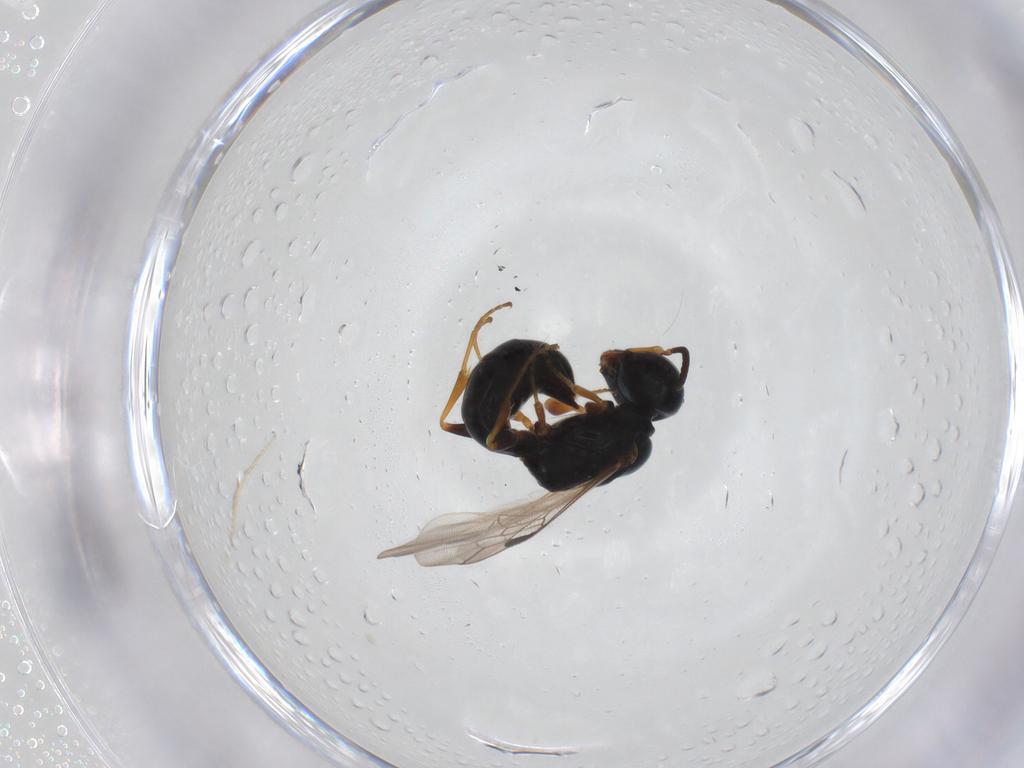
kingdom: Animalia
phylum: Arthropoda
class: Insecta
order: Hymenoptera
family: Crabronidae
